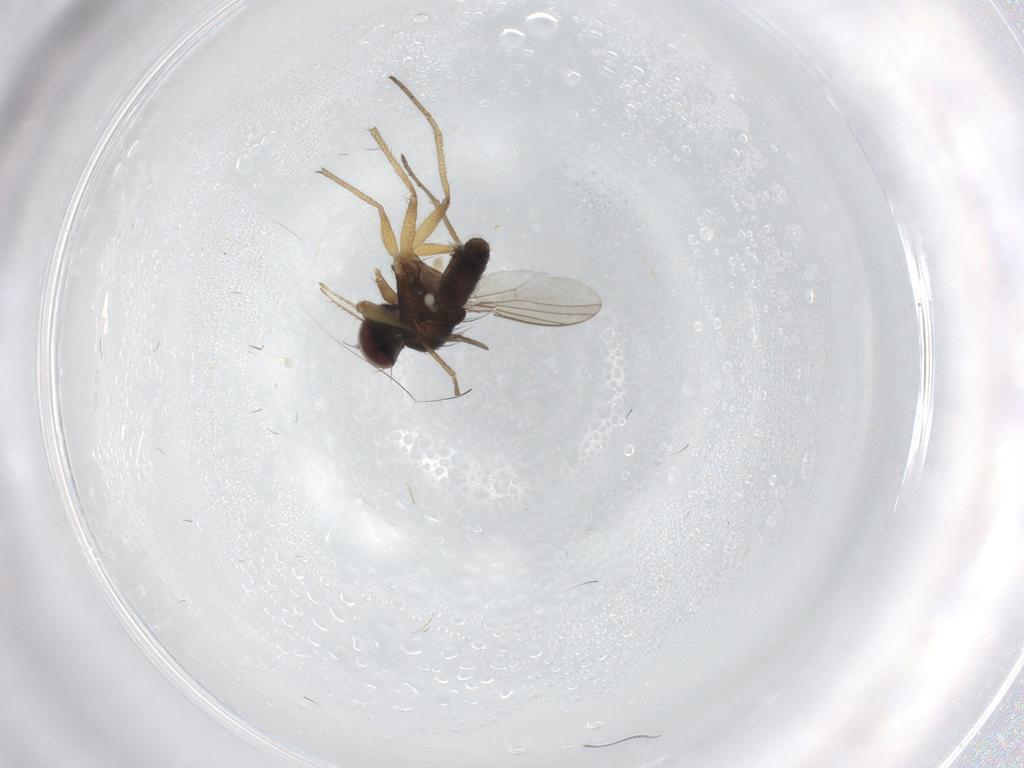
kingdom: Animalia
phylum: Arthropoda
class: Insecta
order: Diptera
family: Dolichopodidae
